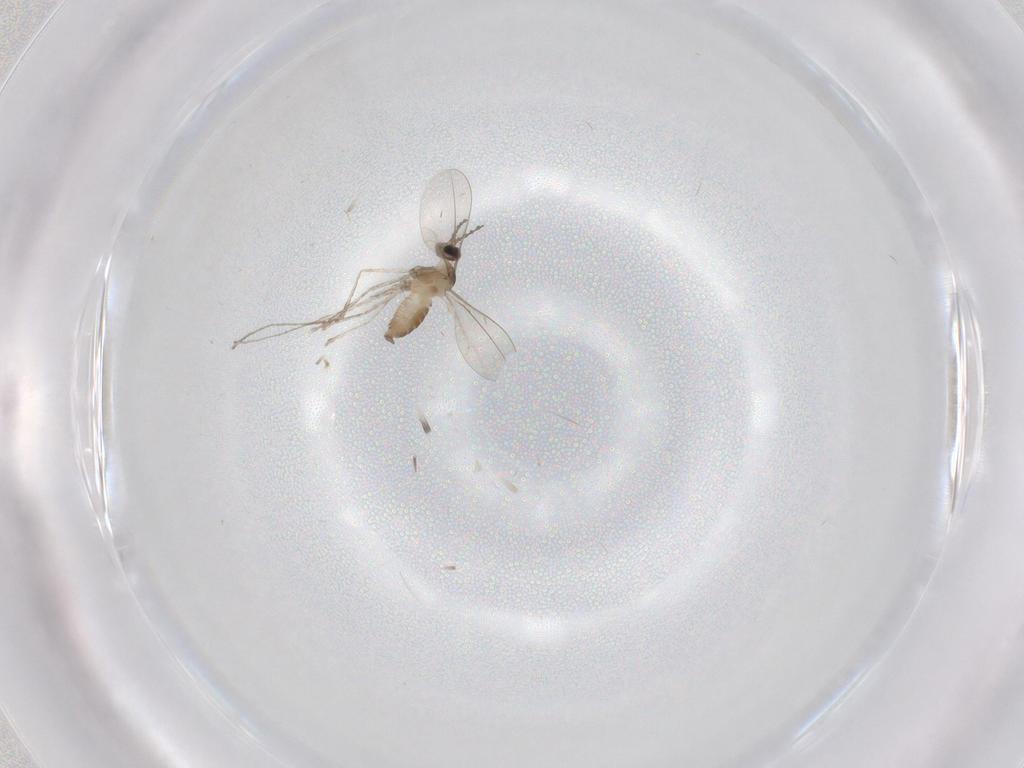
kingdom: Animalia
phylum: Arthropoda
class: Insecta
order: Diptera
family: Cecidomyiidae
